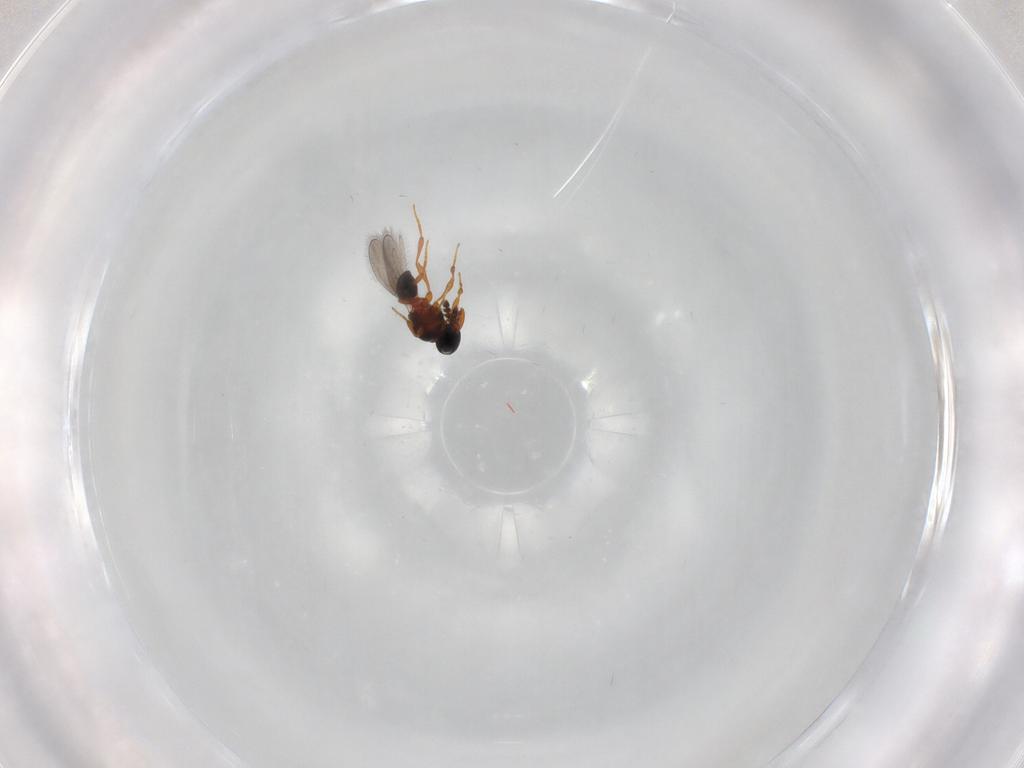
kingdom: Animalia
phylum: Arthropoda
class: Insecta
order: Hymenoptera
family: Platygastridae
